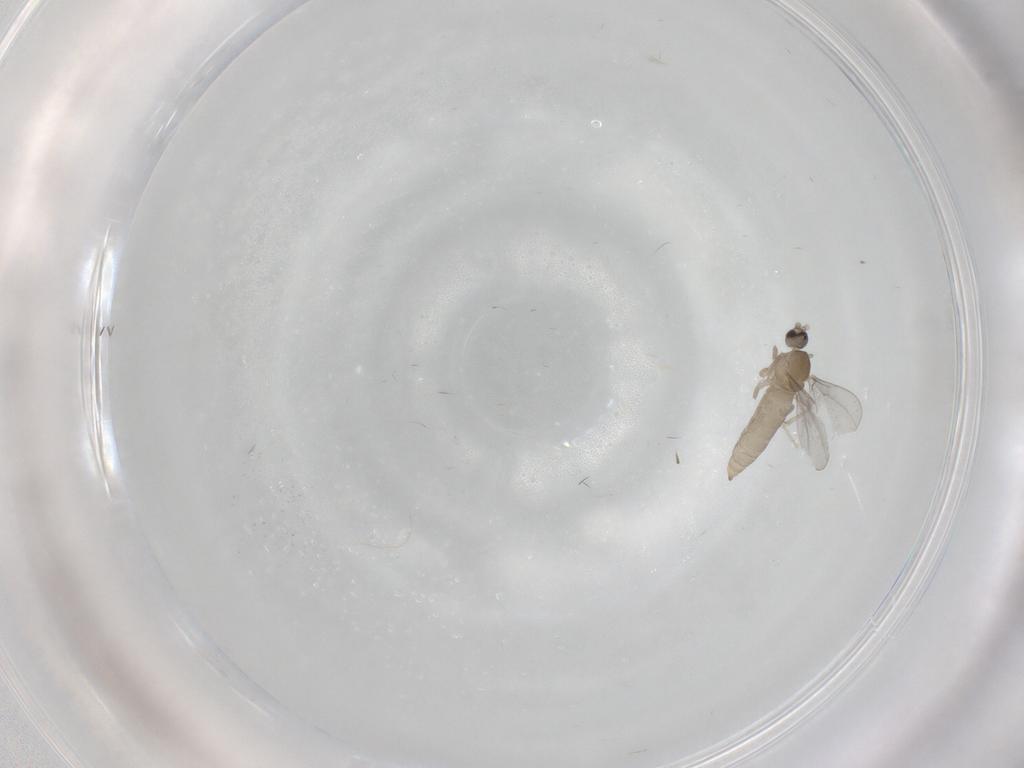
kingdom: Animalia
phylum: Arthropoda
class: Insecta
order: Diptera
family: Cecidomyiidae
